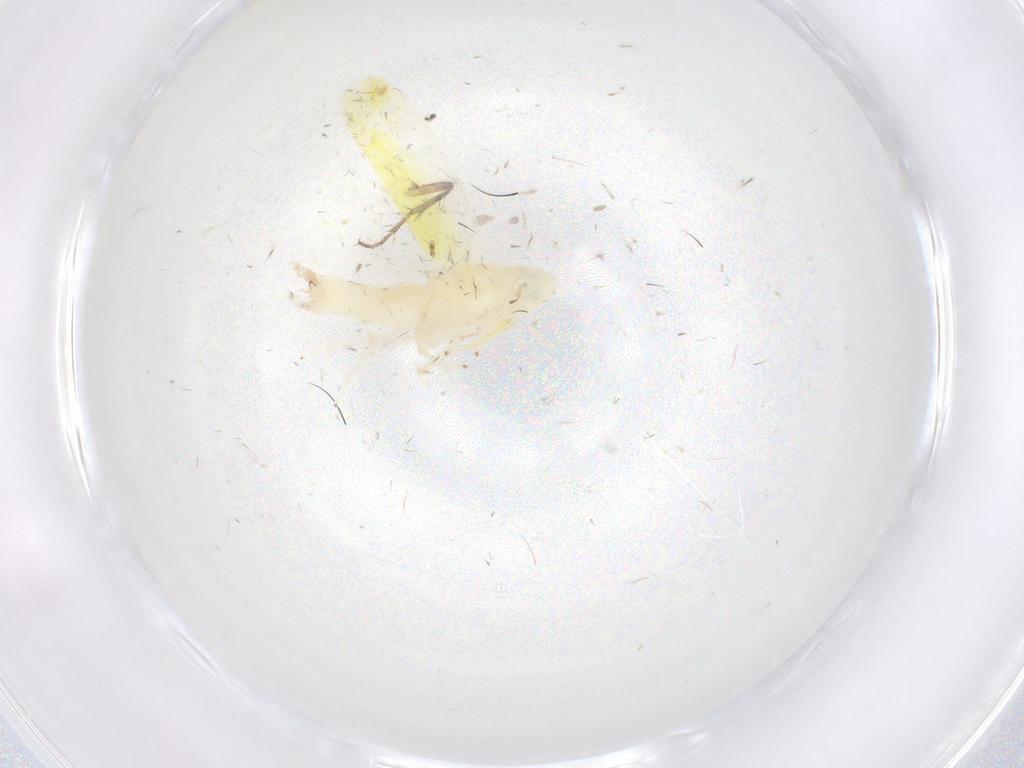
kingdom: Animalia
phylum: Arthropoda
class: Insecta
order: Hemiptera
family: Cicadellidae
